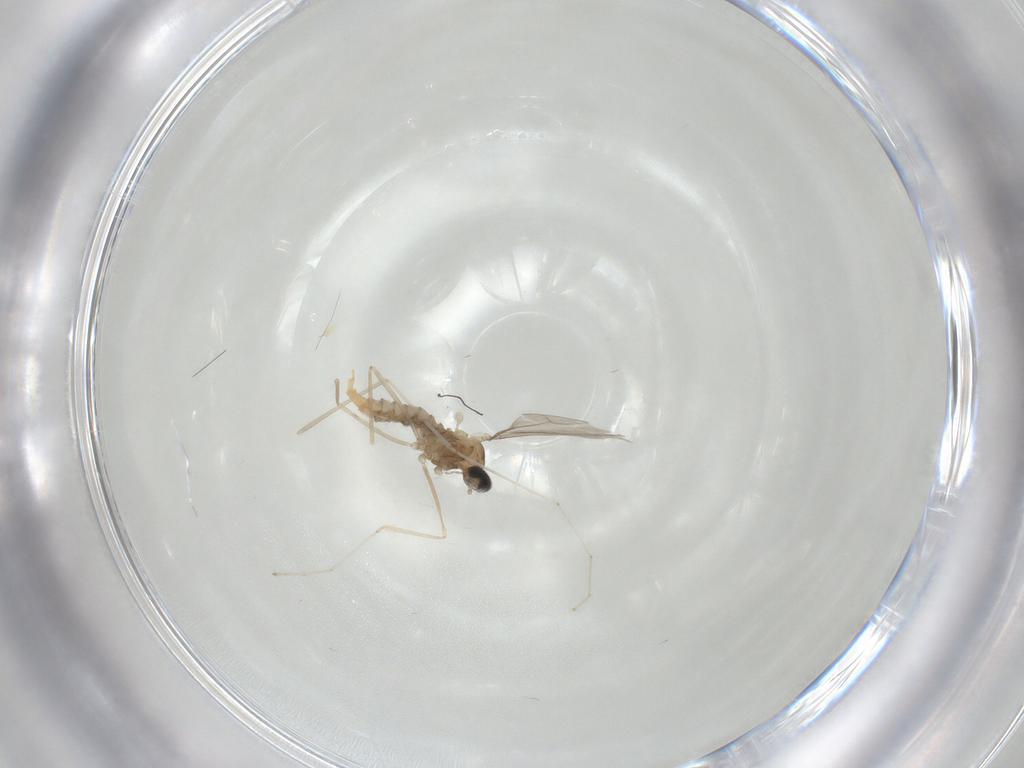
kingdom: Animalia
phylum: Arthropoda
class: Insecta
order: Diptera
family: Cecidomyiidae
